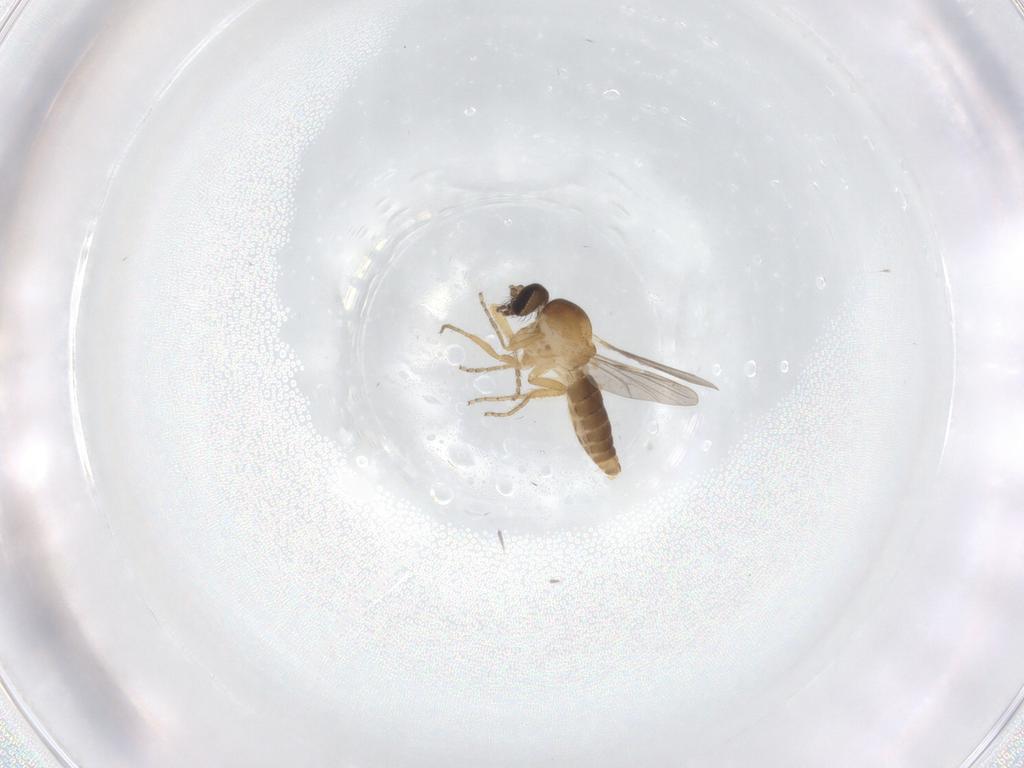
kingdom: Animalia
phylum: Arthropoda
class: Insecta
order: Diptera
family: Ceratopogonidae
